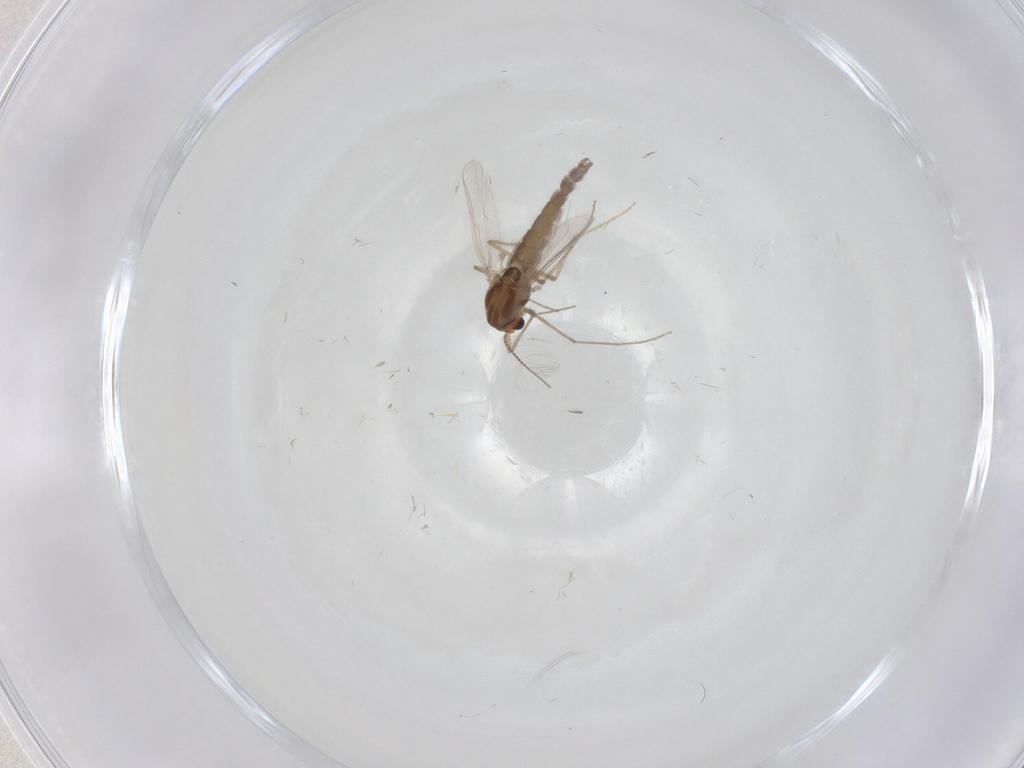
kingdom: Animalia
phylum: Arthropoda
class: Insecta
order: Diptera
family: Chironomidae
